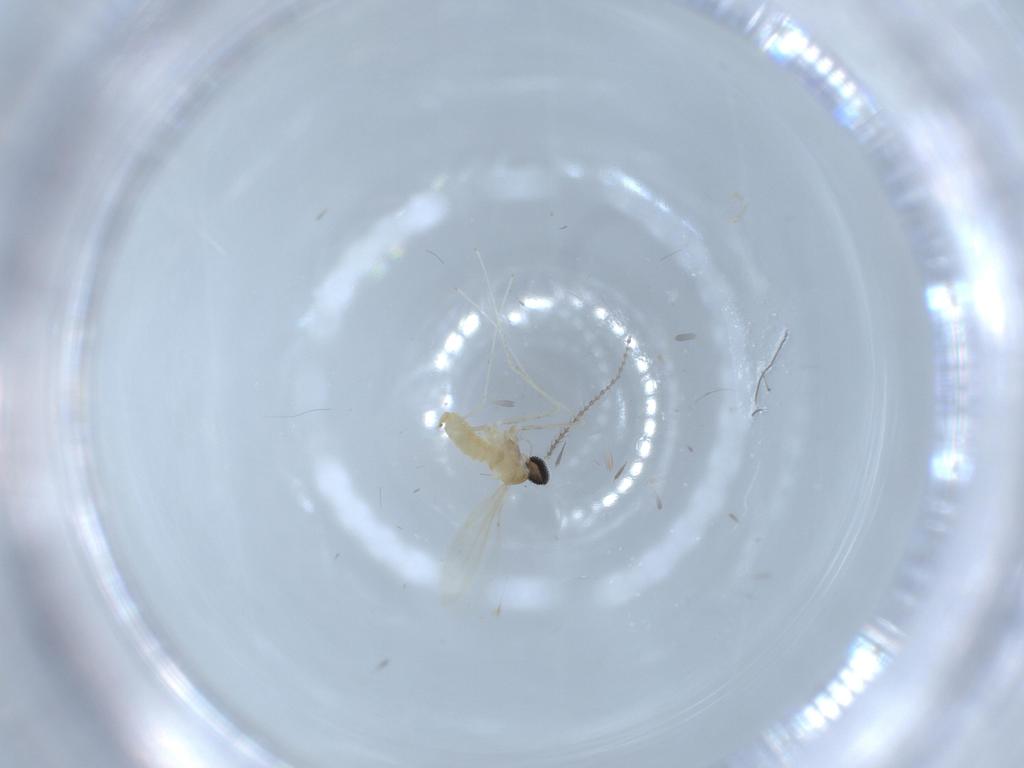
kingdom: Animalia
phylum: Arthropoda
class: Insecta
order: Diptera
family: Cecidomyiidae
